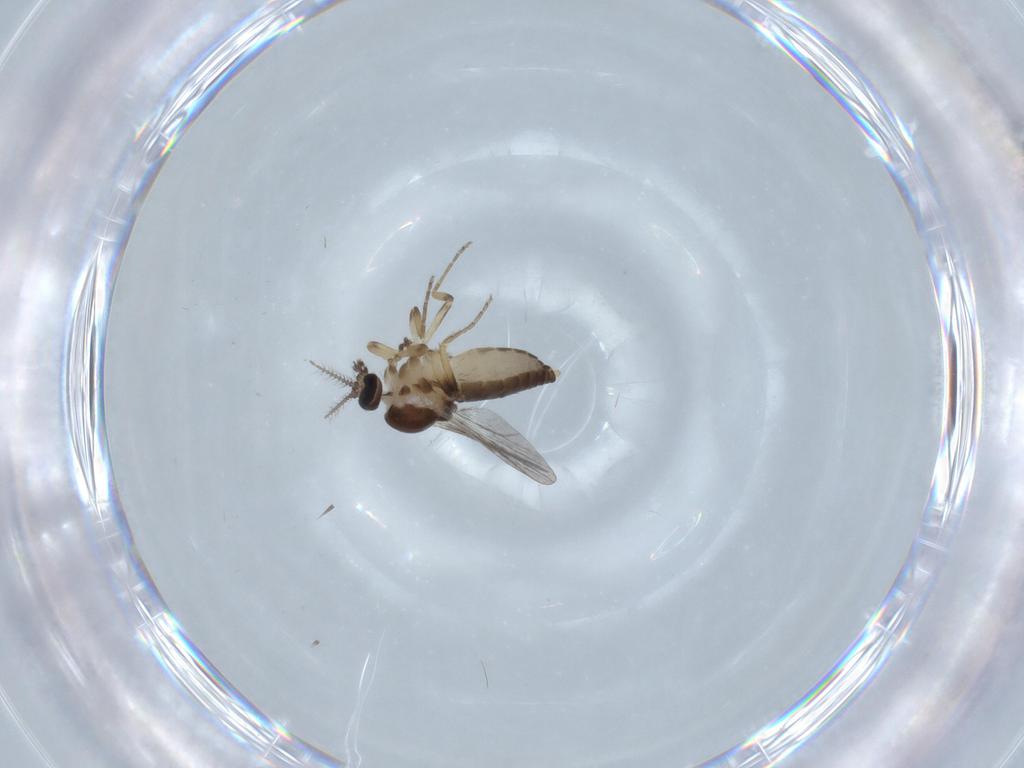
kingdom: Animalia
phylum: Arthropoda
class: Insecta
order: Diptera
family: Ceratopogonidae
